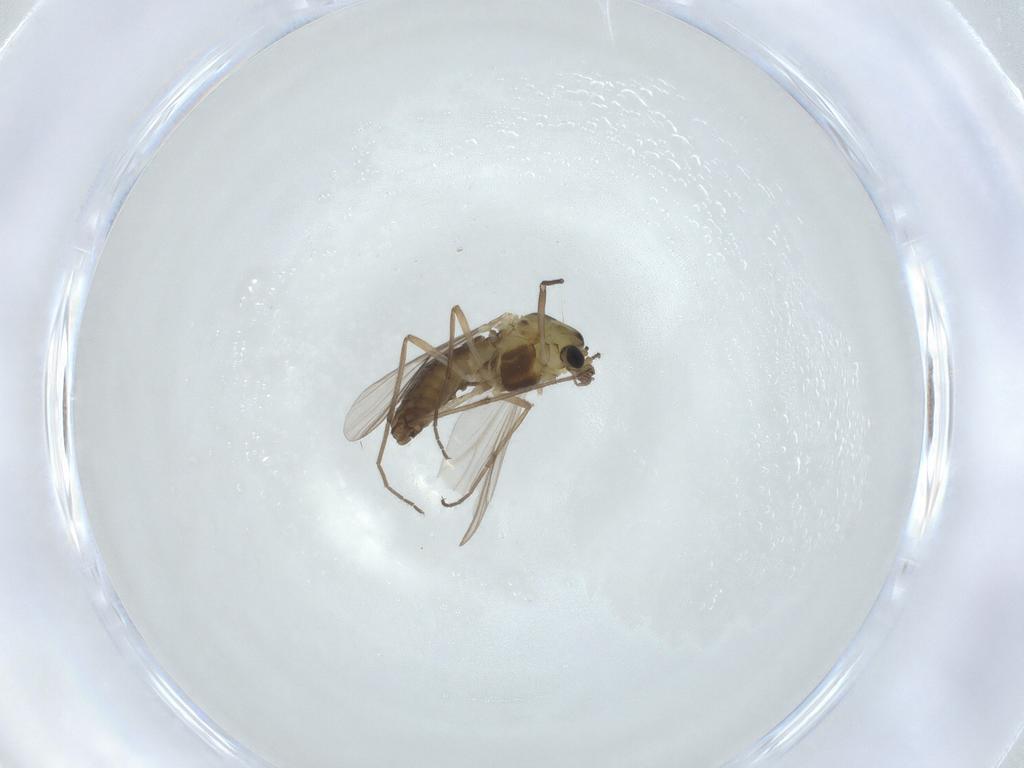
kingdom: Animalia
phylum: Arthropoda
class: Insecta
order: Diptera
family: Chironomidae
